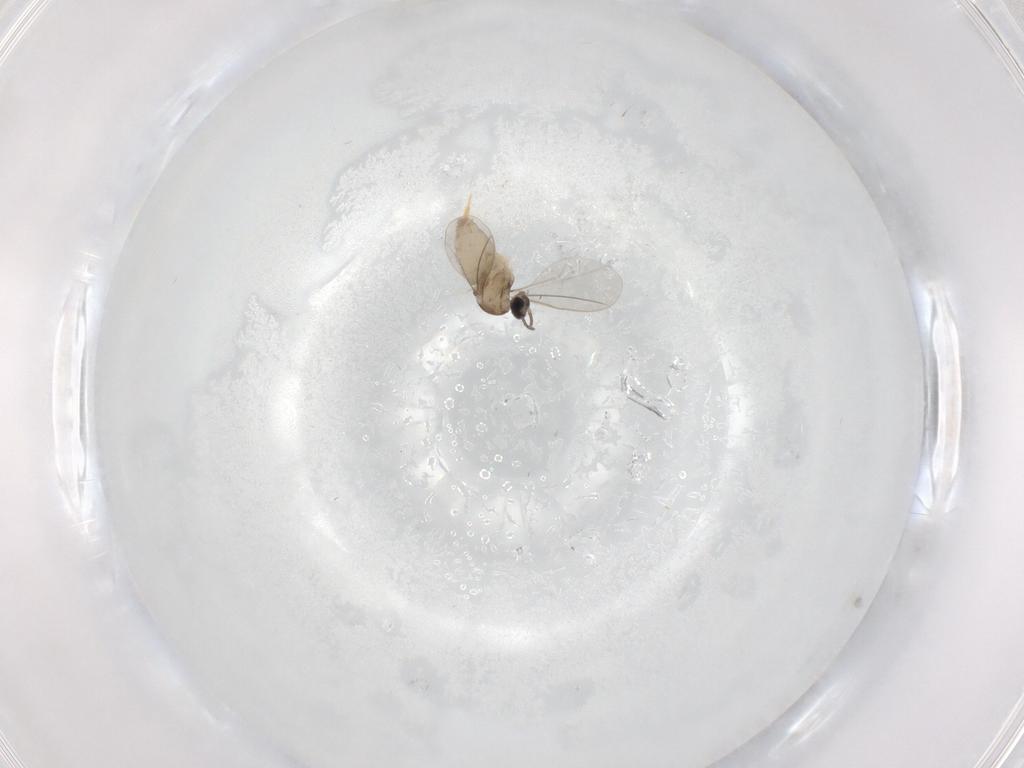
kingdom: Animalia
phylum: Arthropoda
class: Insecta
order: Diptera
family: Cecidomyiidae
